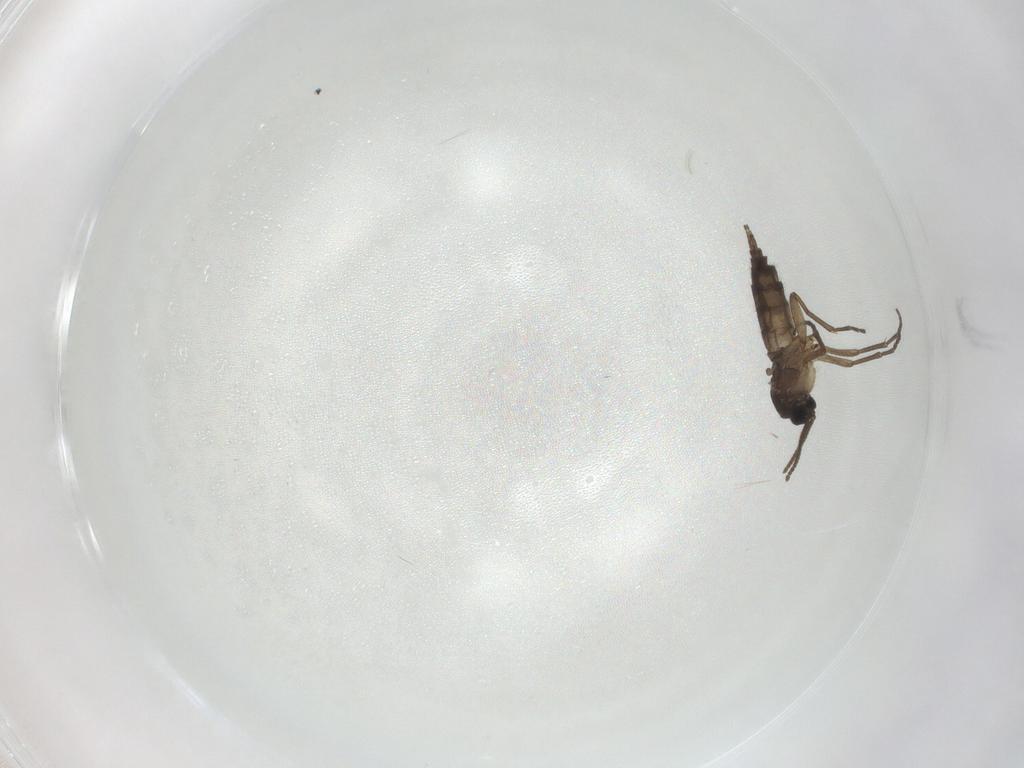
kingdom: Animalia
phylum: Arthropoda
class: Insecta
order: Diptera
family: Sciaridae
